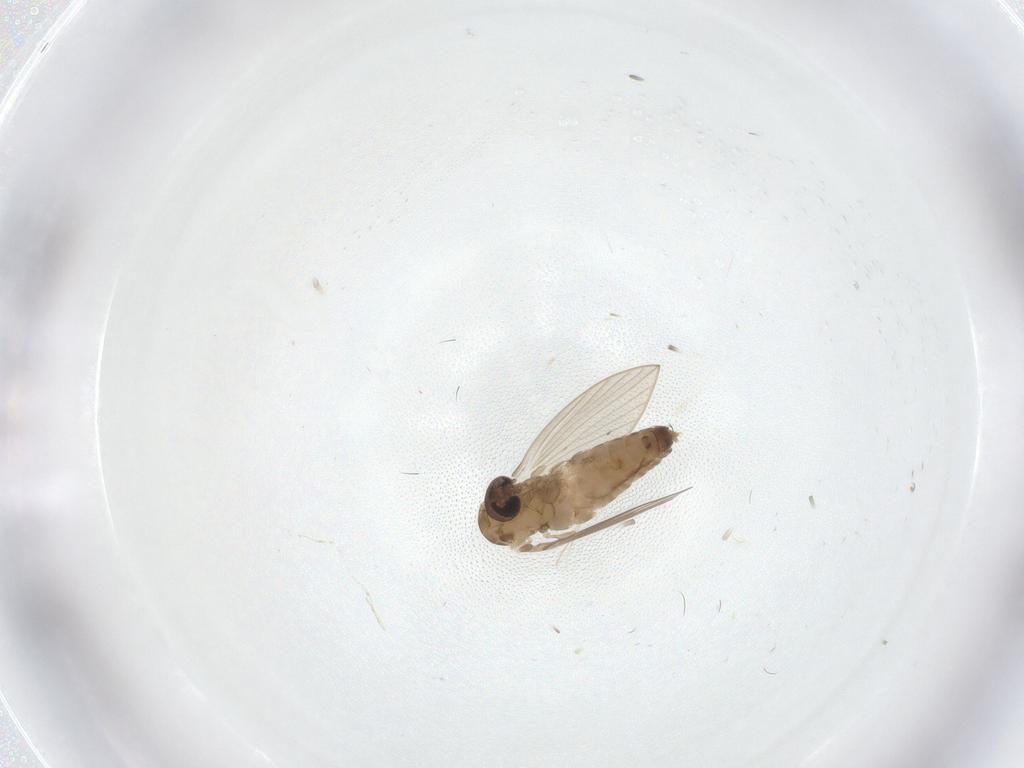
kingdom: Animalia
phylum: Arthropoda
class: Insecta
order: Diptera
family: Psychodidae
